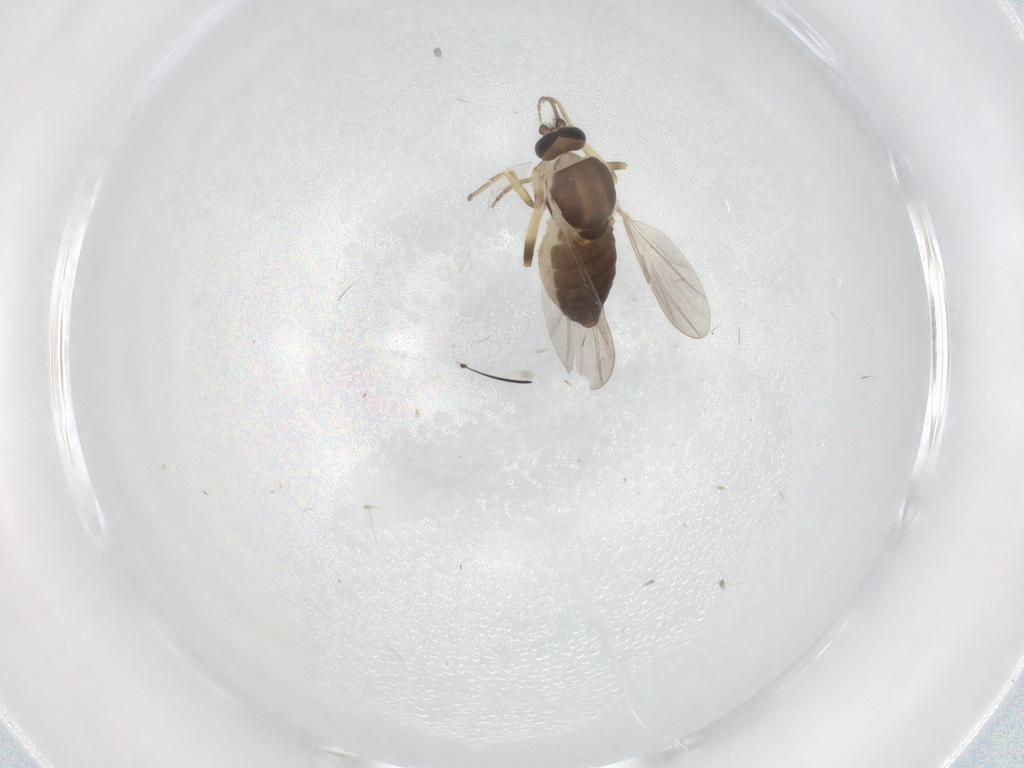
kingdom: Animalia
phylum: Arthropoda
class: Insecta
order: Diptera
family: Ceratopogonidae
